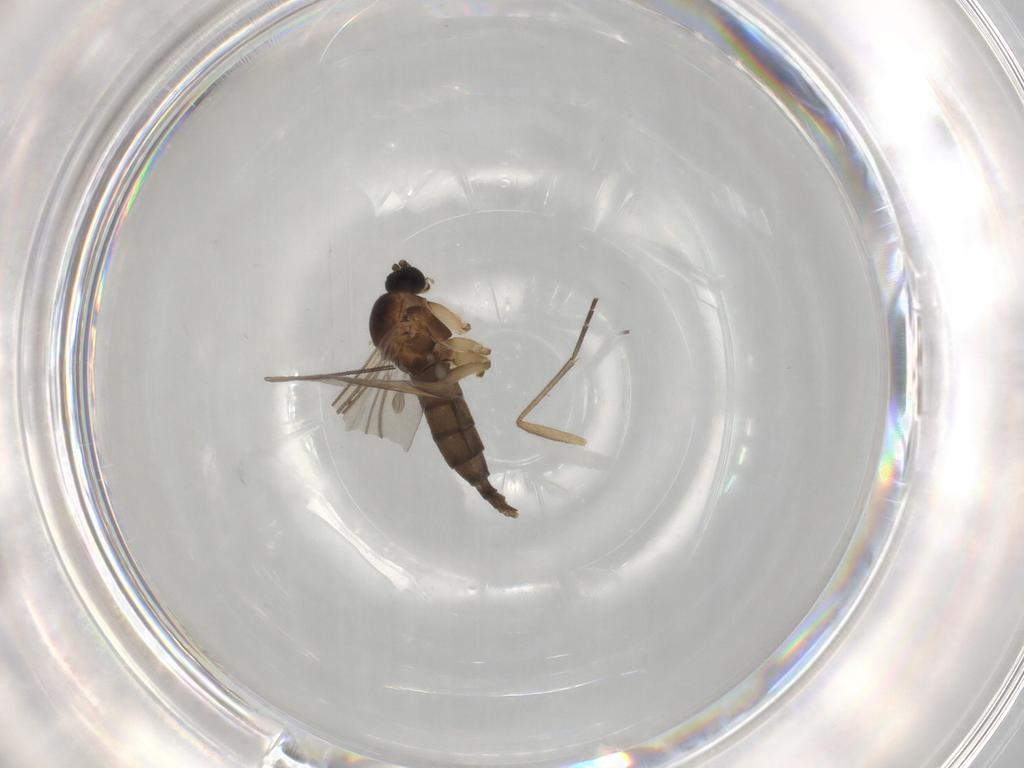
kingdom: Animalia
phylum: Arthropoda
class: Insecta
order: Diptera
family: Sciaridae
